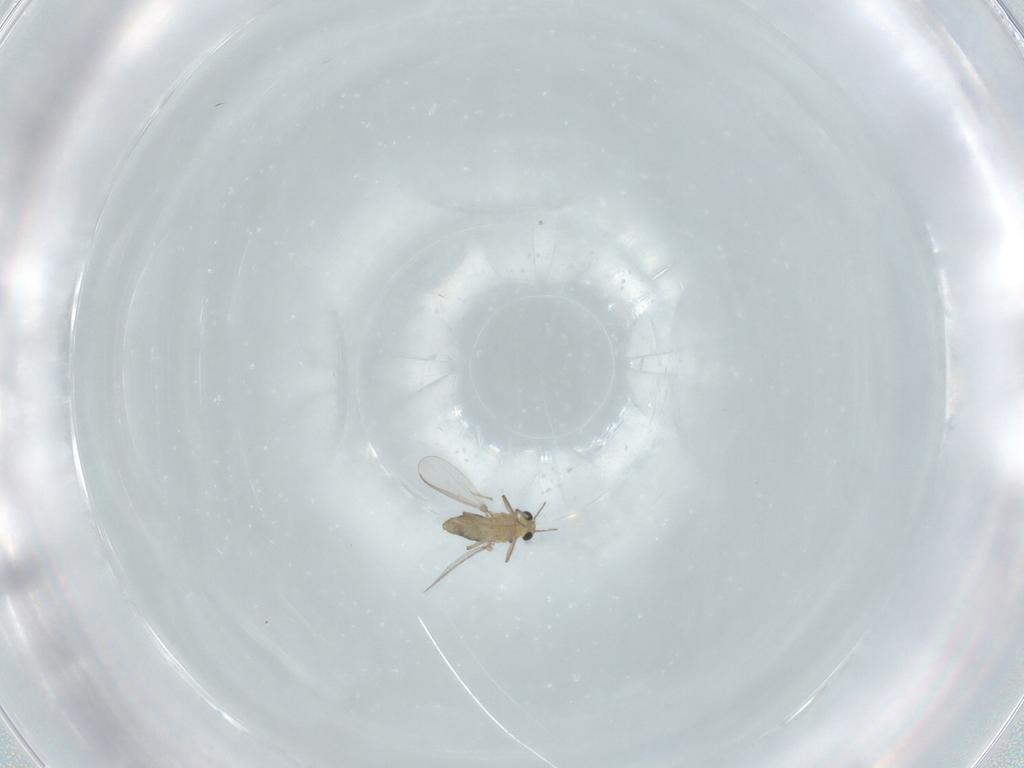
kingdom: Animalia
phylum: Arthropoda
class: Insecta
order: Diptera
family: Chironomidae
